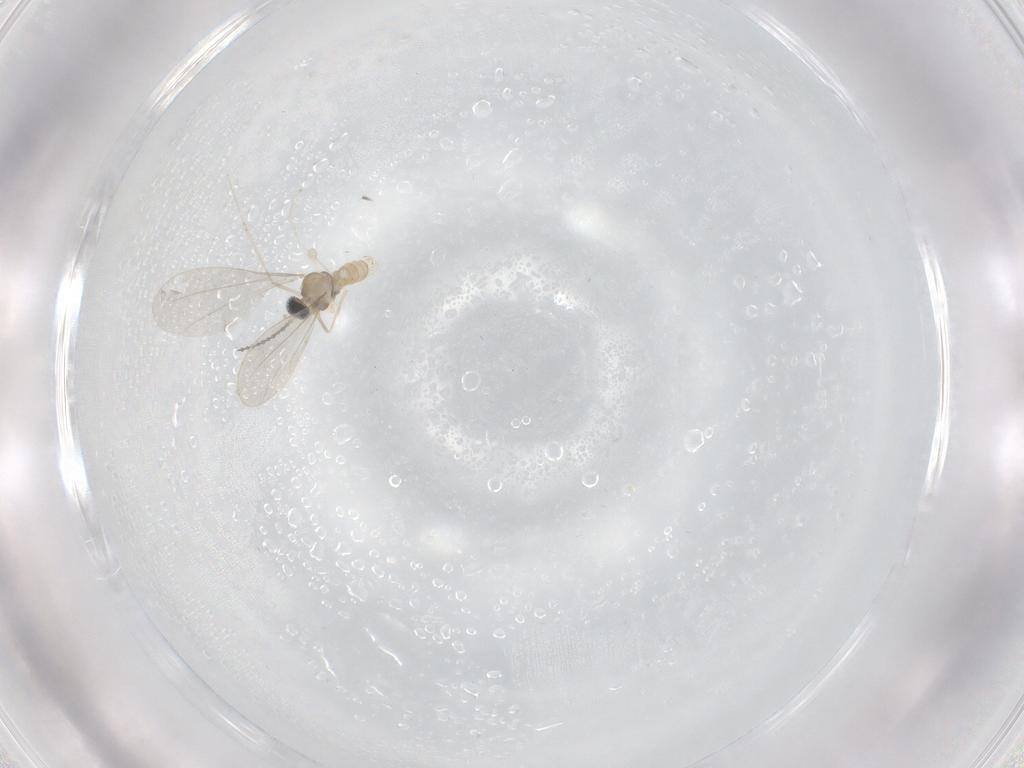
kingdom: Animalia
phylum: Arthropoda
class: Insecta
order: Diptera
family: Cecidomyiidae
